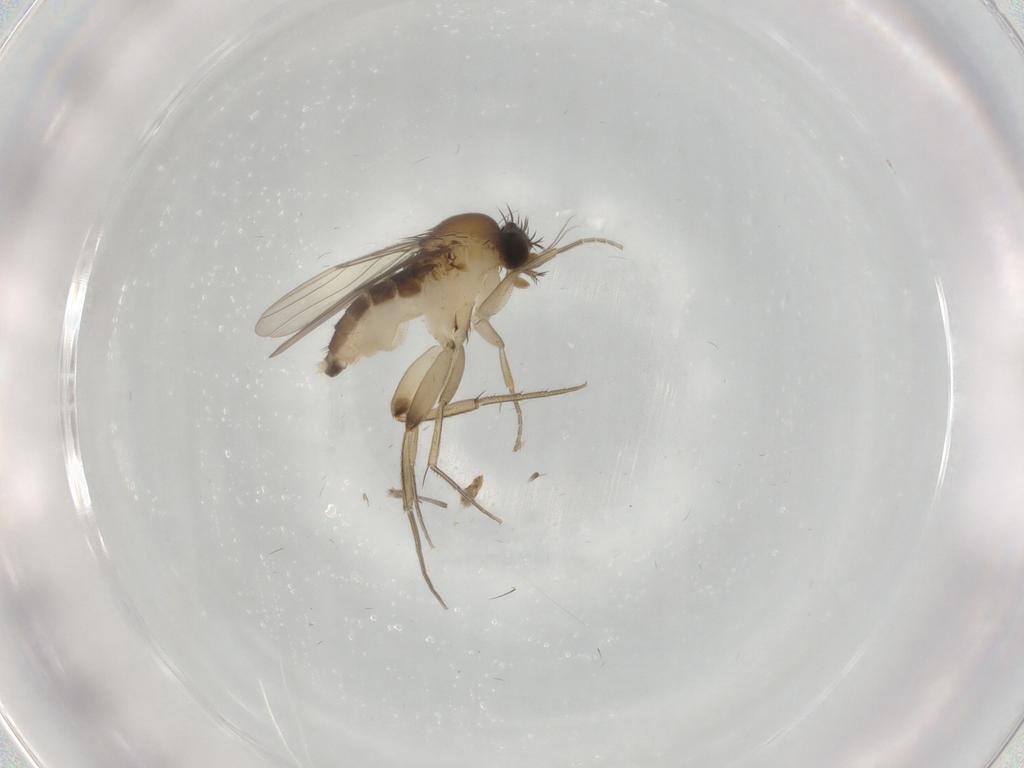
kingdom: Animalia
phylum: Arthropoda
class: Insecta
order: Diptera
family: Phoridae
